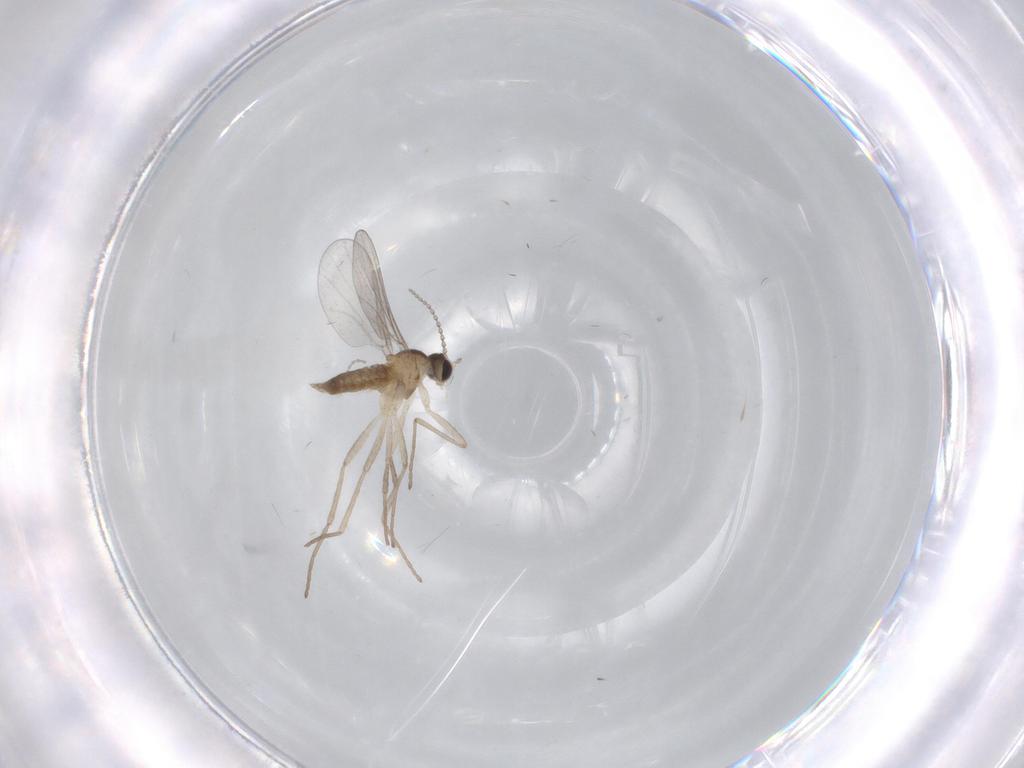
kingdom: Animalia
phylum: Arthropoda
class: Insecta
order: Diptera
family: Cecidomyiidae
